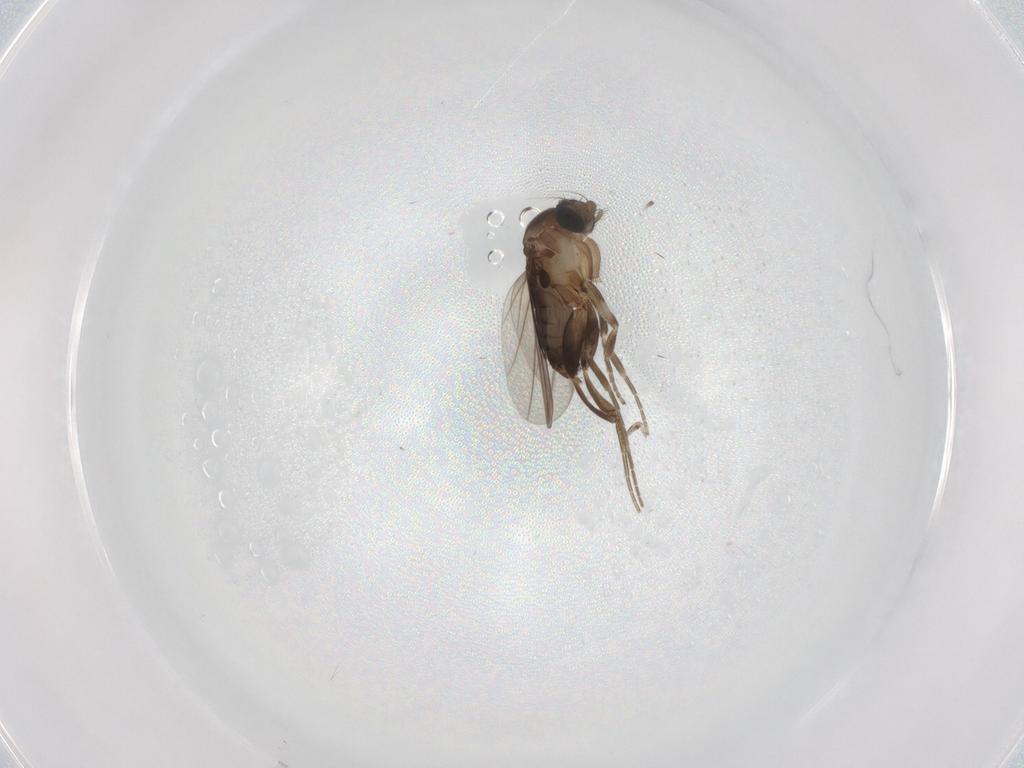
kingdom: Animalia
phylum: Arthropoda
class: Insecta
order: Diptera
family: Phoridae
